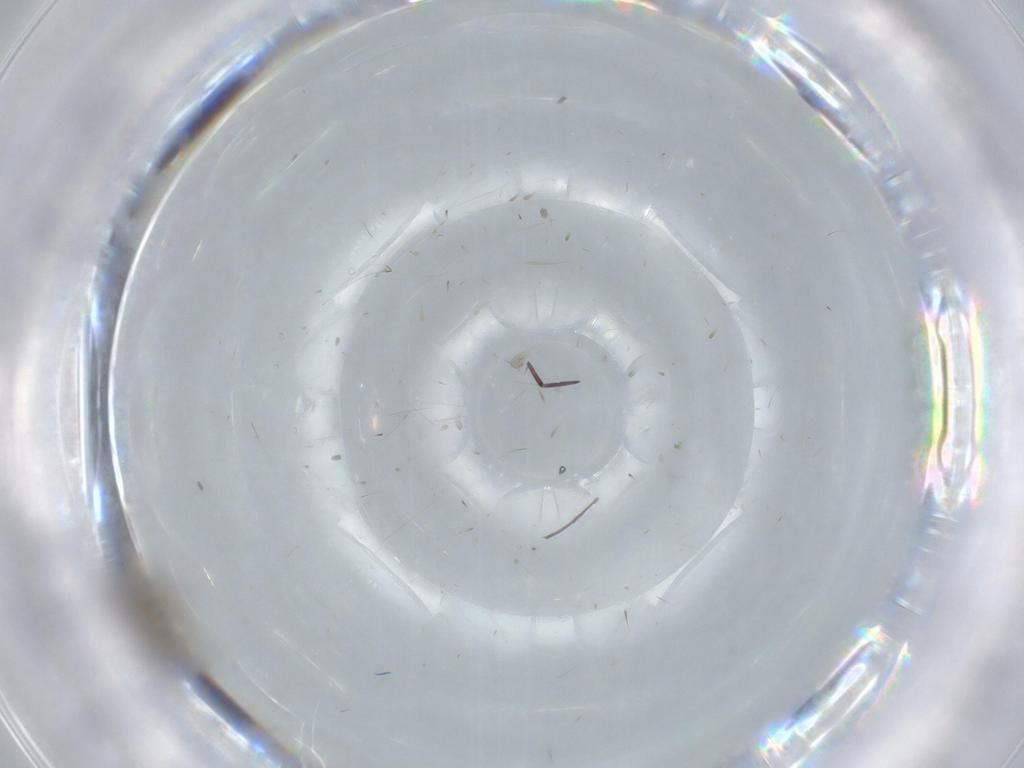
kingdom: Animalia
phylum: Arthropoda
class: Collembola
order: Entomobryomorpha
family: Entomobryidae
